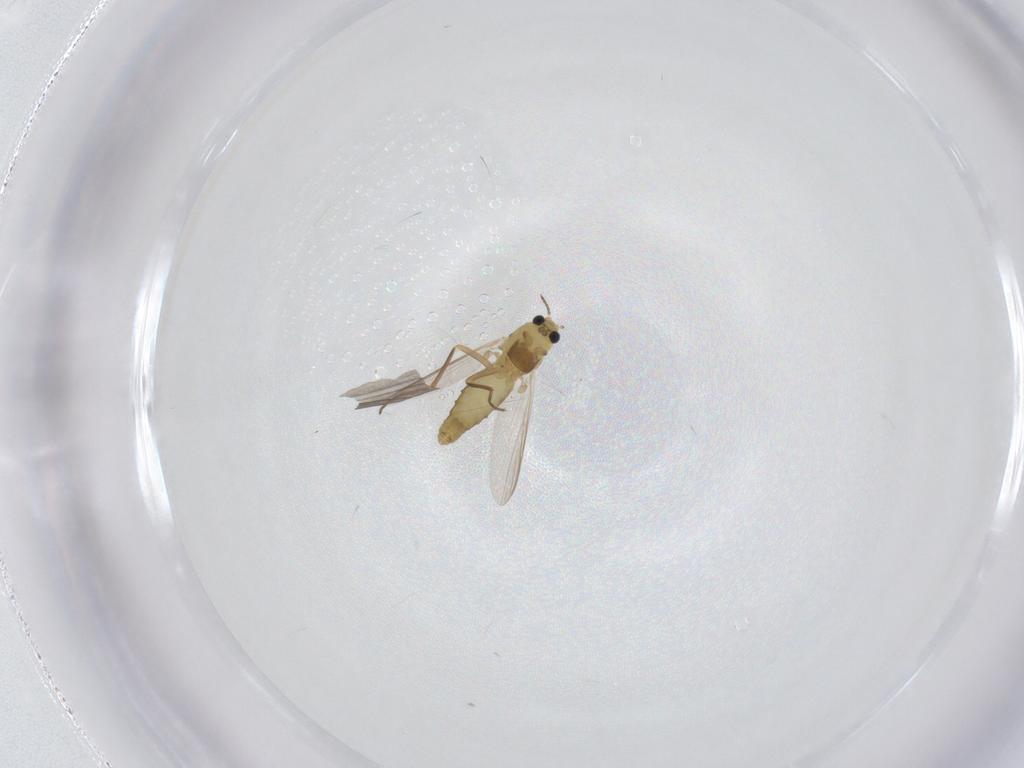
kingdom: Animalia
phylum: Arthropoda
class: Insecta
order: Diptera
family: Chironomidae
